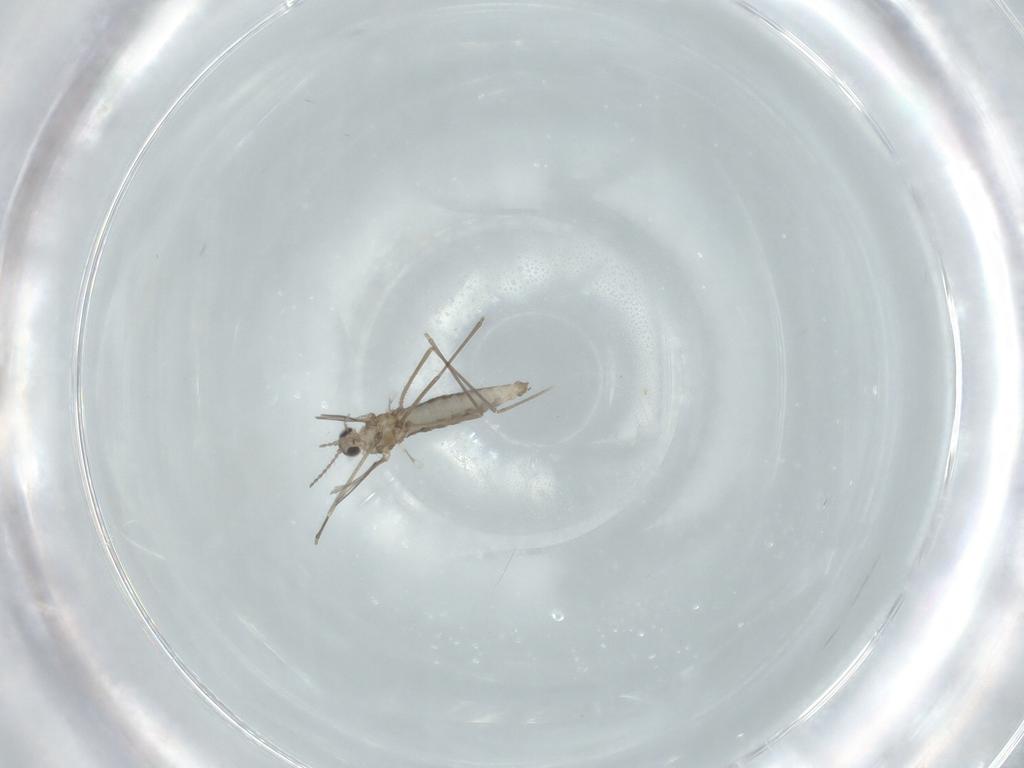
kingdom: Animalia
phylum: Arthropoda
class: Insecta
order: Diptera
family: Cecidomyiidae
